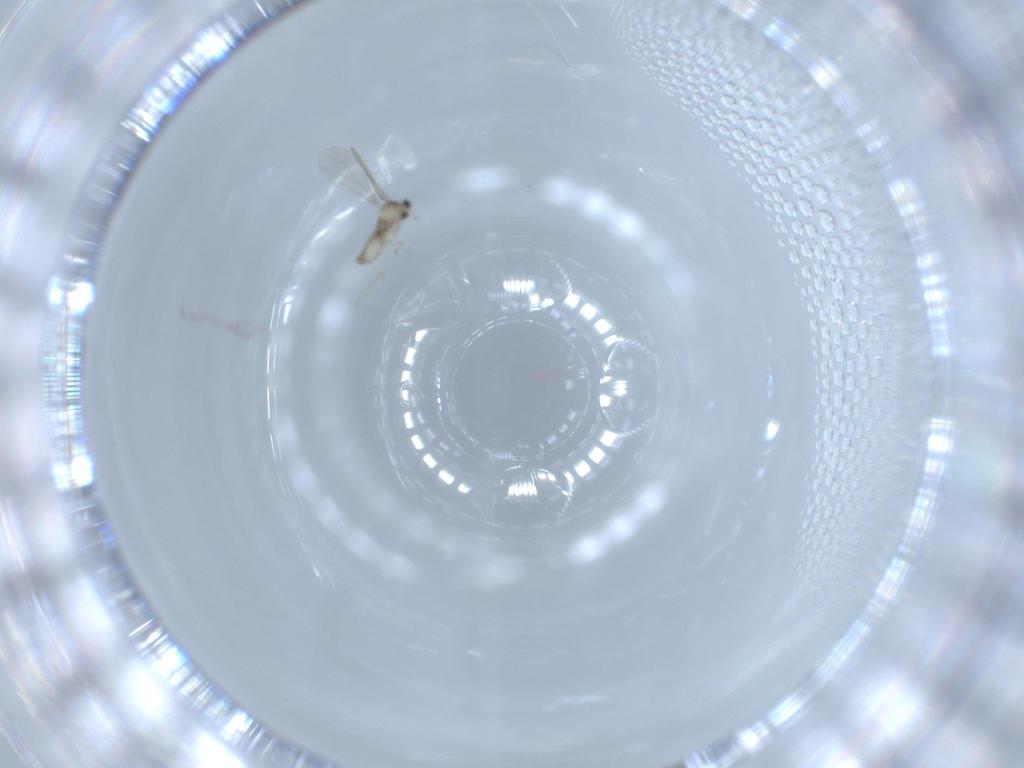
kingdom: Animalia
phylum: Arthropoda
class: Insecta
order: Diptera
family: Cecidomyiidae
